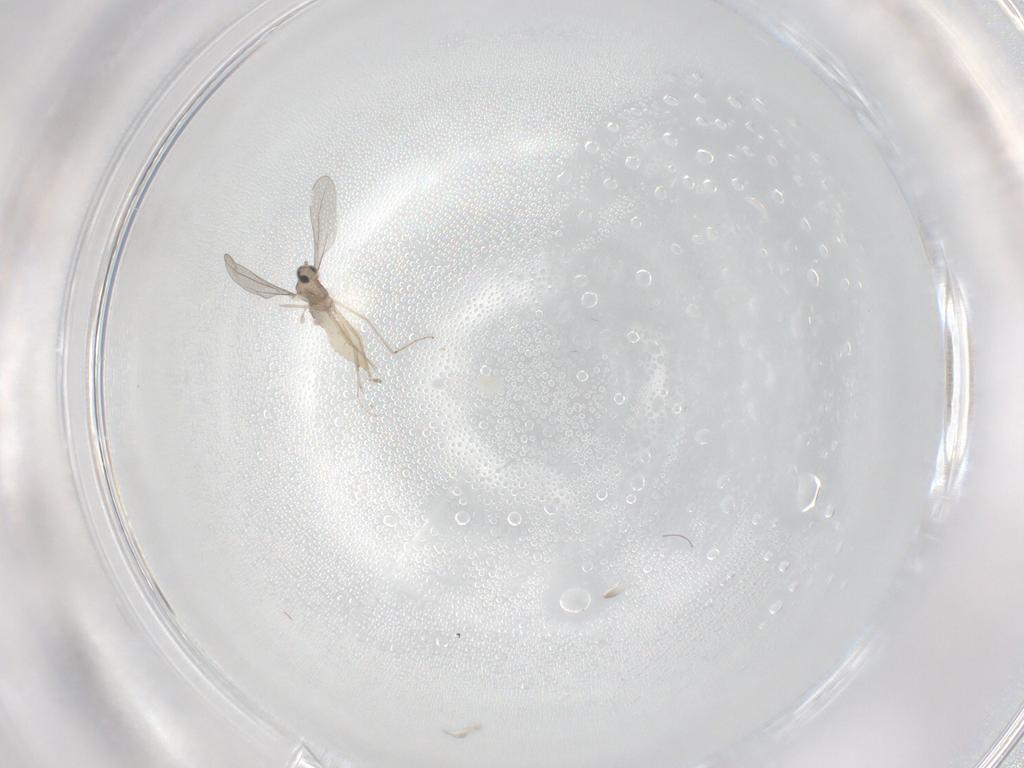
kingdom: Animalia
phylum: Arthropoda
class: Insecta
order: Diptera
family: Cecidomyiidae
